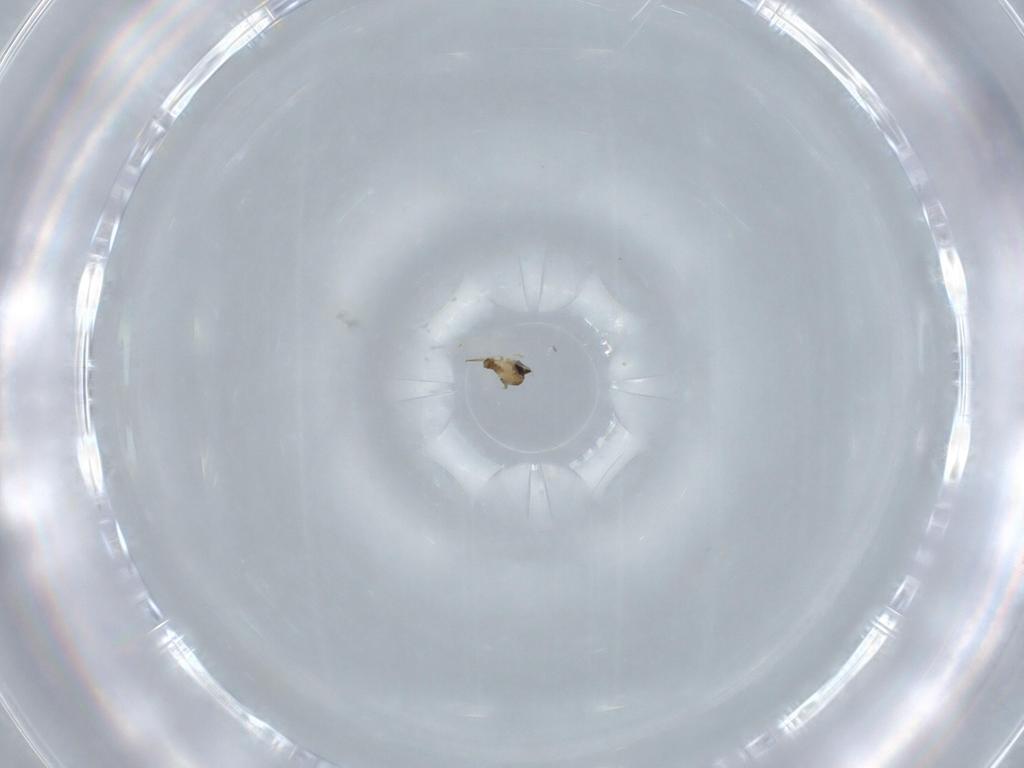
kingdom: Animalia
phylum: Arthropoda
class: Insecta
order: Diptera
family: Cecidomyiidae
